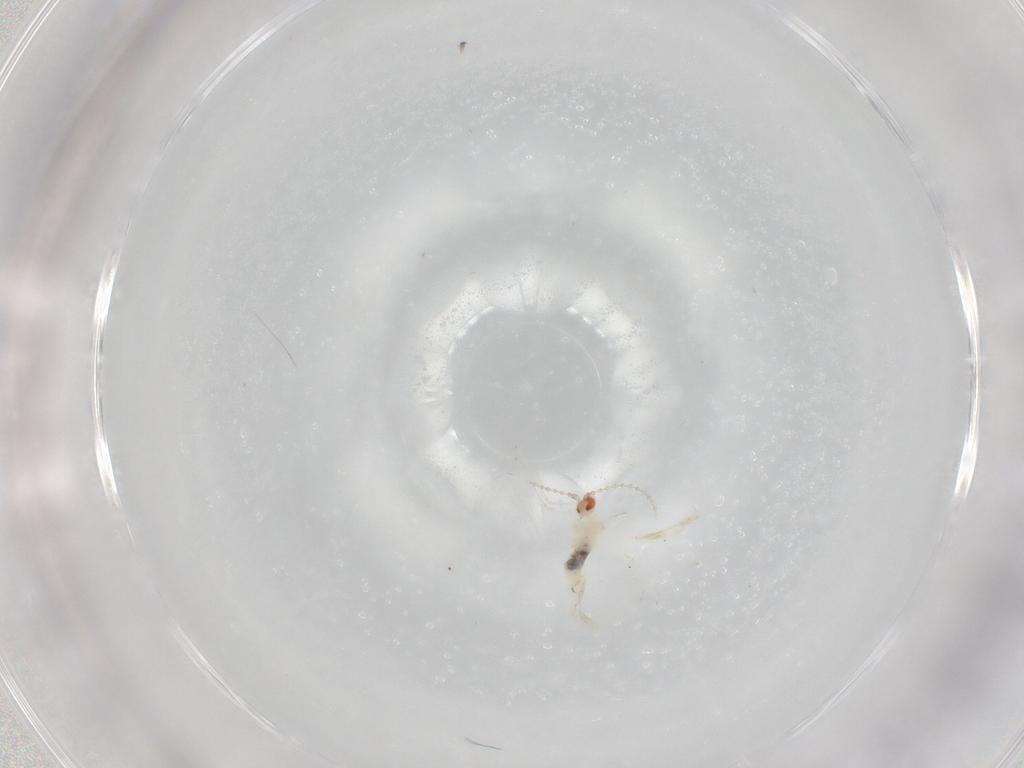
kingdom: Animalia
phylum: Arthropoda
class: Insecta
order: Diptera
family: Cecidomyiidae
